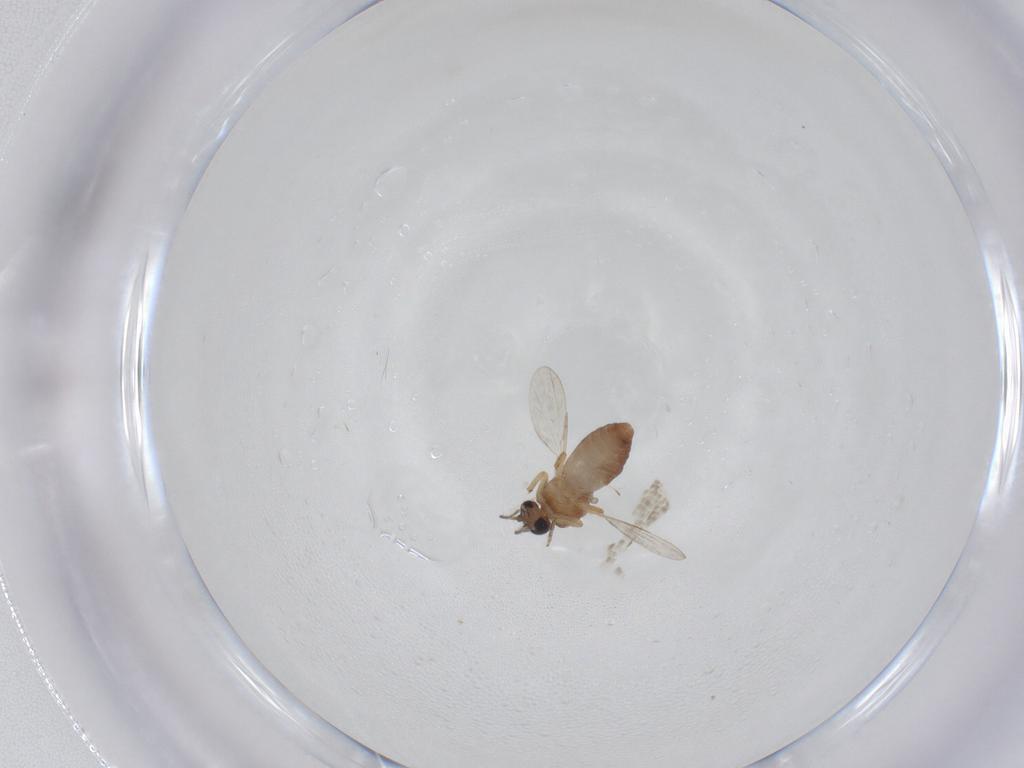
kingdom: Animalia
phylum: Arthropoda
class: Insecta
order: Diptera
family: Ceratopogonidae
